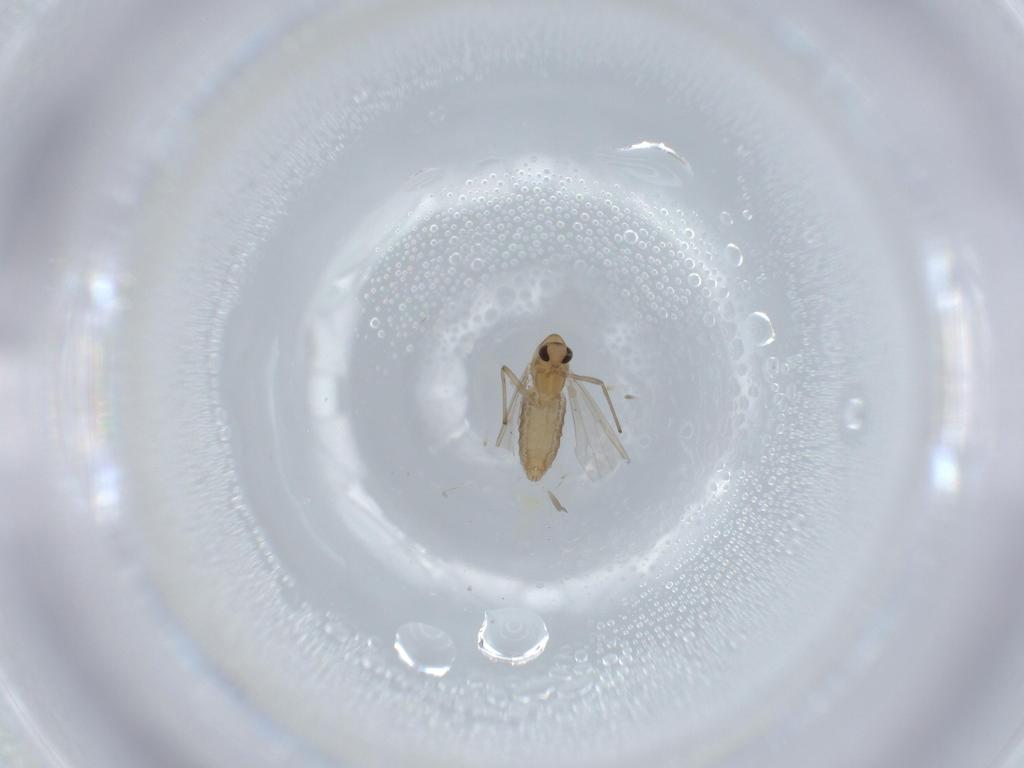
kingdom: Animalia
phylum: Arthropoda
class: Insecta
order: Diptera
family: Chironomidae
